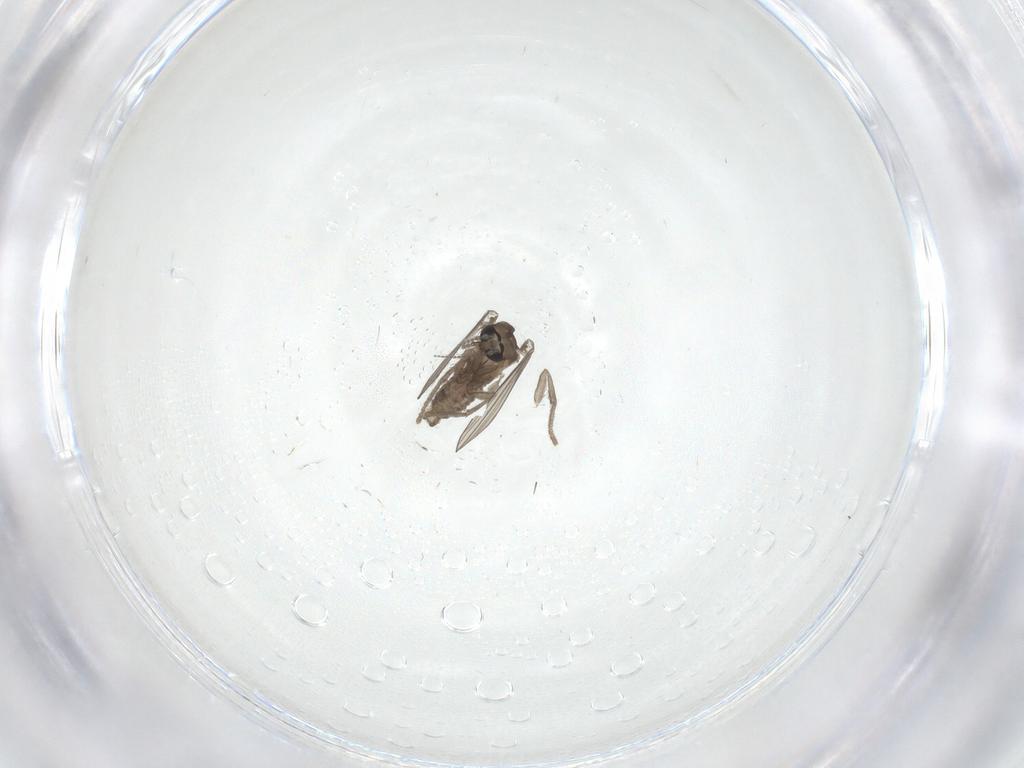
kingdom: Animalia
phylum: Arthropoda
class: Insecta
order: Diptera
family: Psychodidae
